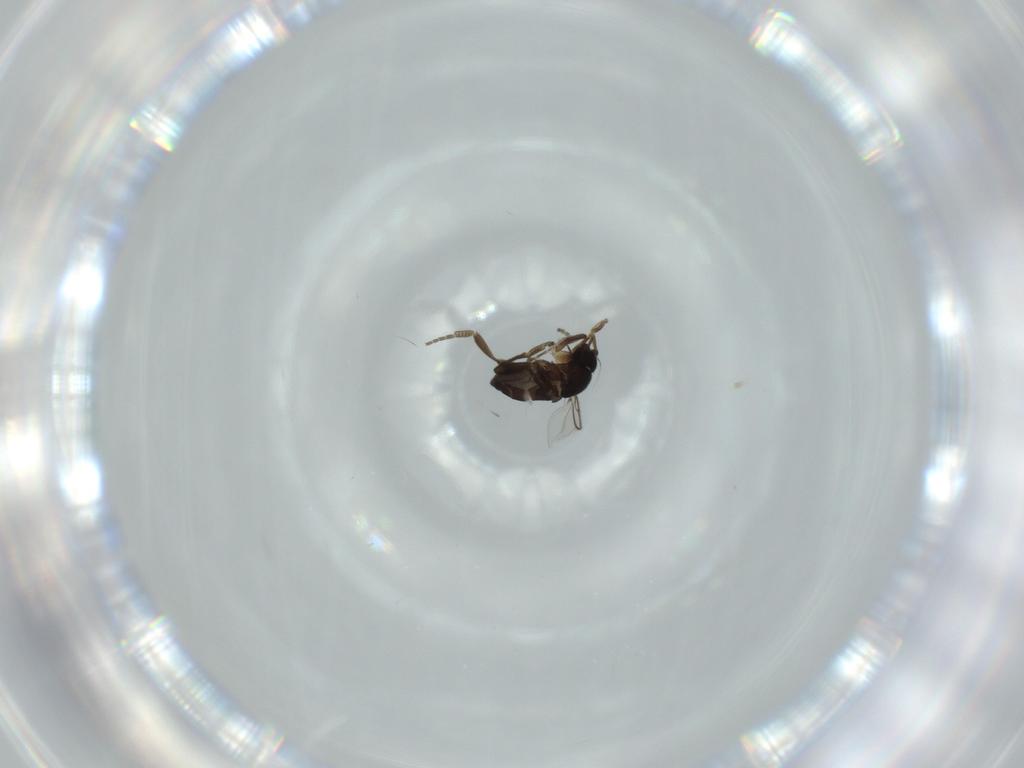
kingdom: Animalia
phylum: Arthropoda
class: Insecta
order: Diptera
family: Phoridae
